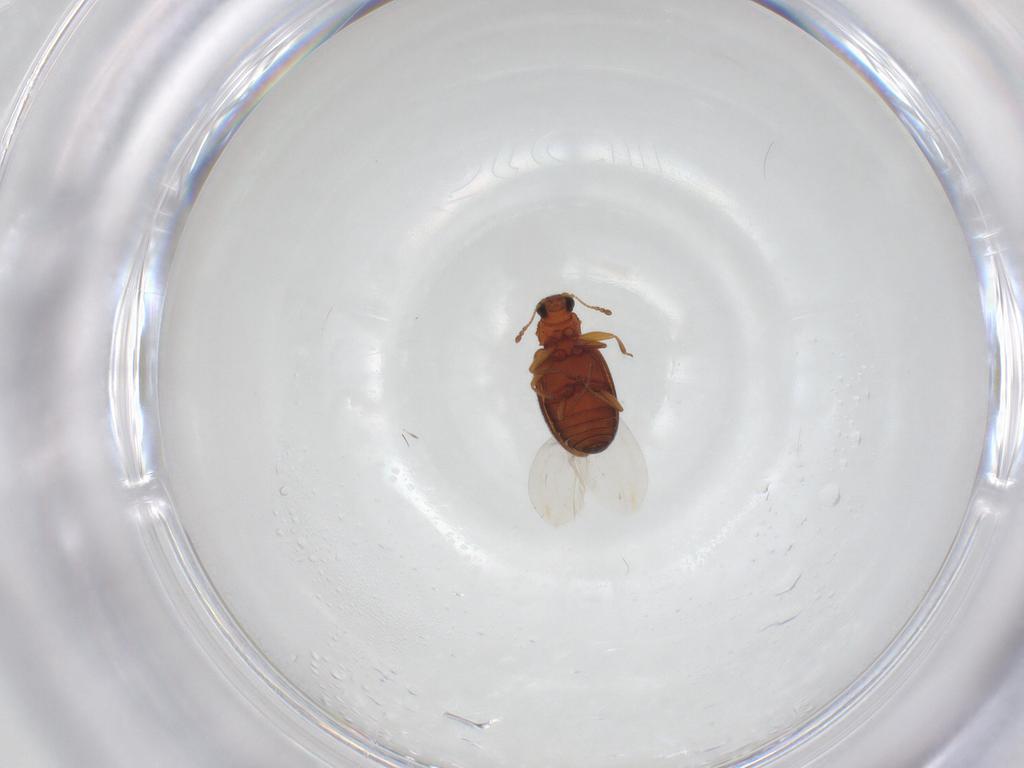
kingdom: Animalia
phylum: Arthropoda
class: Insecta
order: Coleoptera
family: Latridiidae
